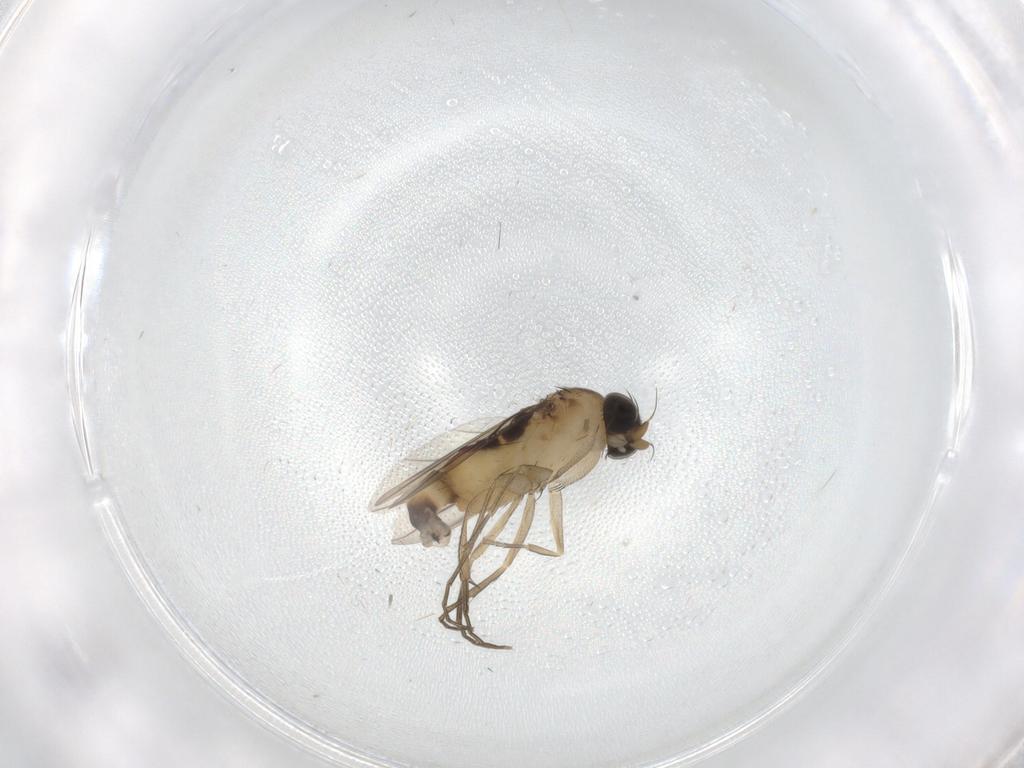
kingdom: Animalia
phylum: Arthropoda
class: Insecta
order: Diptera
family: Phoridae
